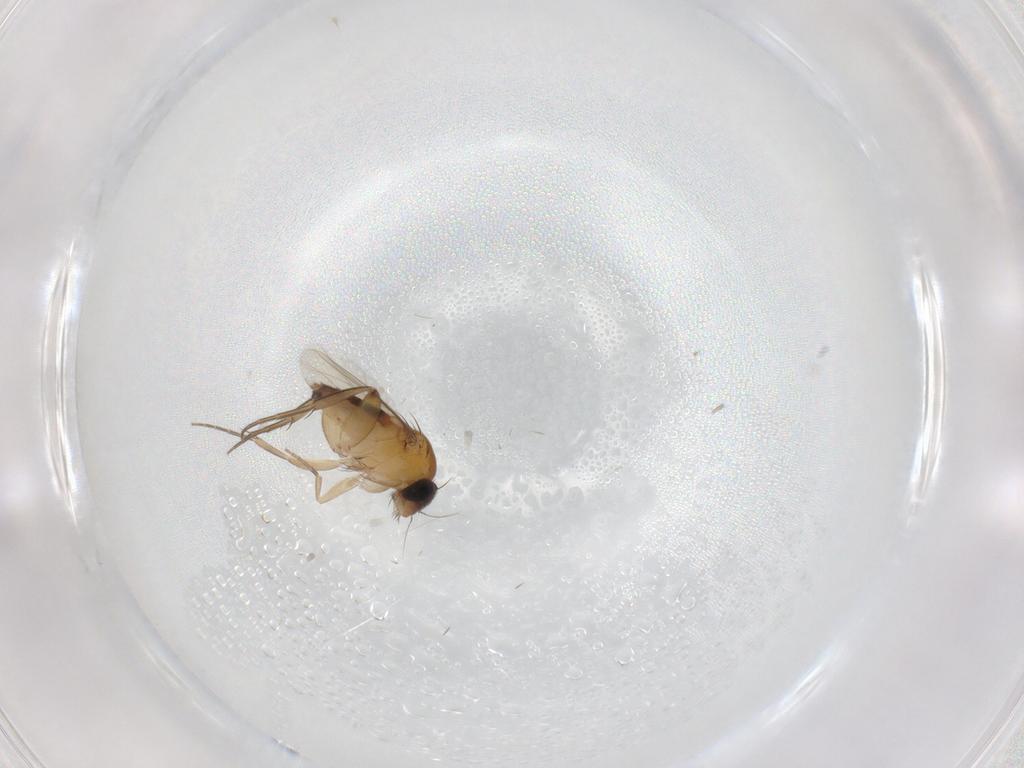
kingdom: Animalia
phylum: Arthropoda
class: Insecta
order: Diptera
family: Phoridae
